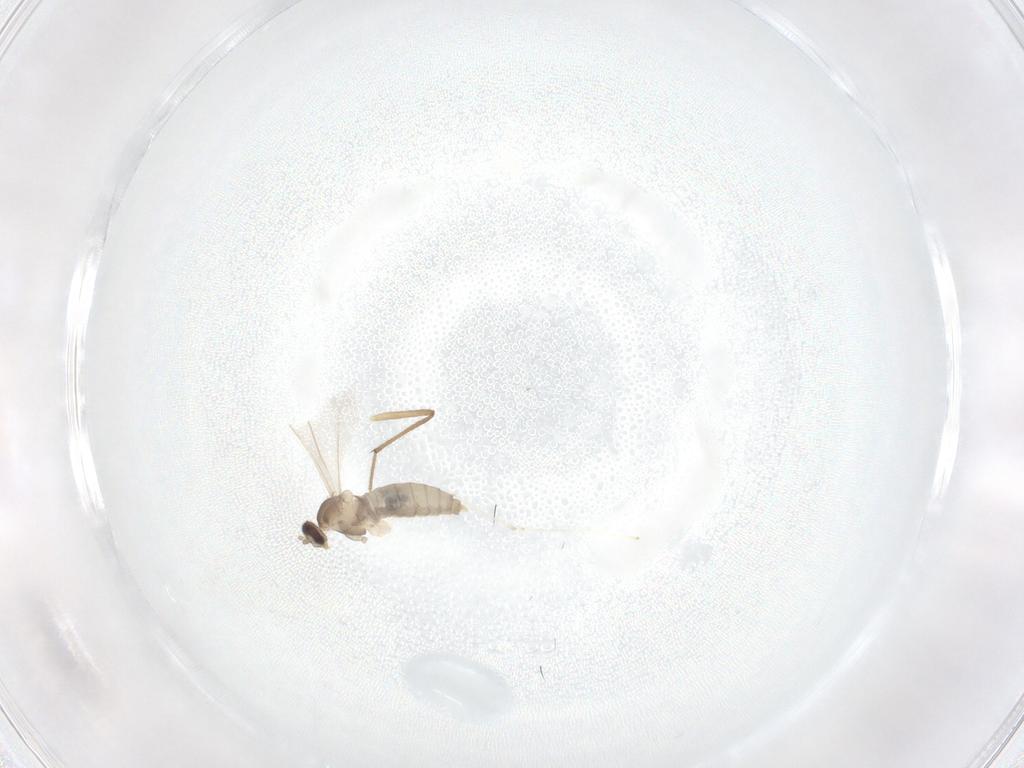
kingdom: Animalia
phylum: Arthropoda
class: Insecta
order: Diptera
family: Cecidomyiidae
